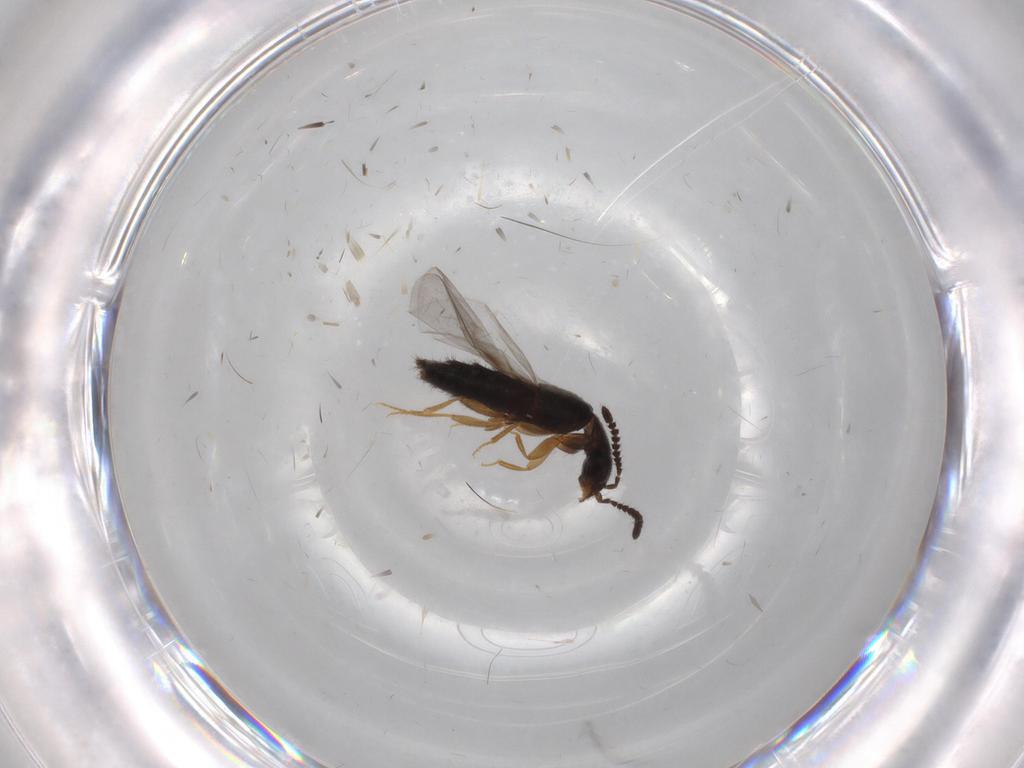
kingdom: Animalia
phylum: Arthropoda
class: Insecta
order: Coleoptera
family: Staphylinidae
